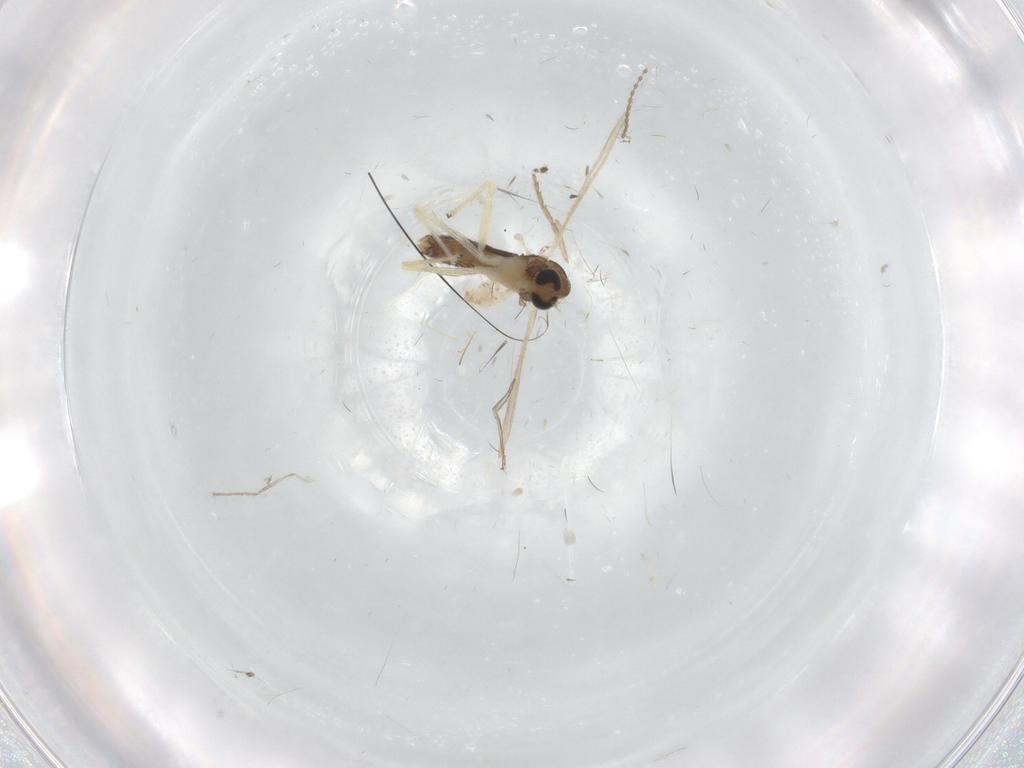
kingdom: Animalia
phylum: Arthropoda
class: Insecta
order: Diptera
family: Chironomidae
